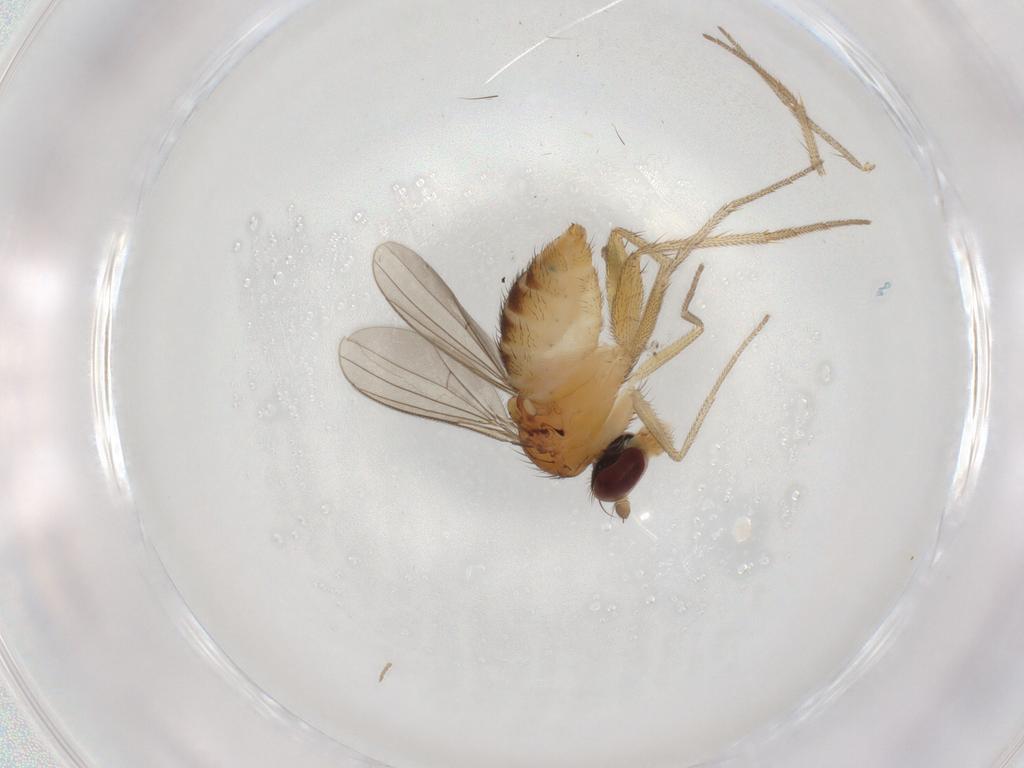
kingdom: Animalia
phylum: Arthropoda
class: Insecta
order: Diptera
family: Dolichopodidae
